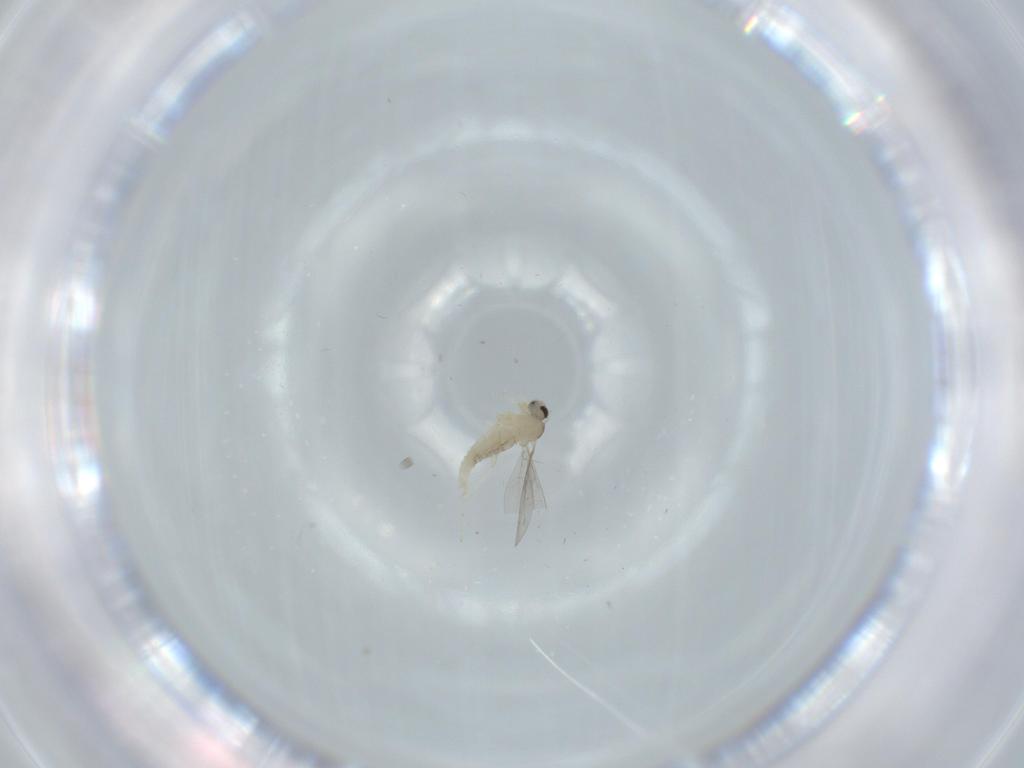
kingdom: Animalia
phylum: Arthropoda
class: Insecta
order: Diptera
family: Cecidomyiidae
